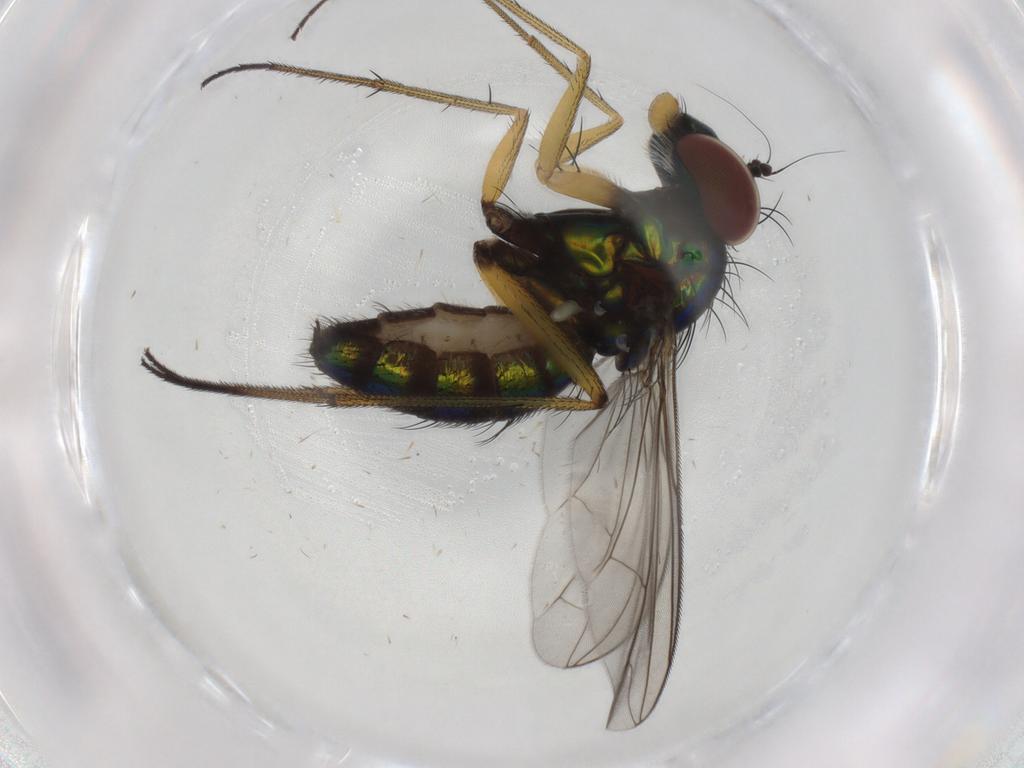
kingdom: Animalia
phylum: Arthropoda
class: Insecta
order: Diptera
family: Dolichopodidae
